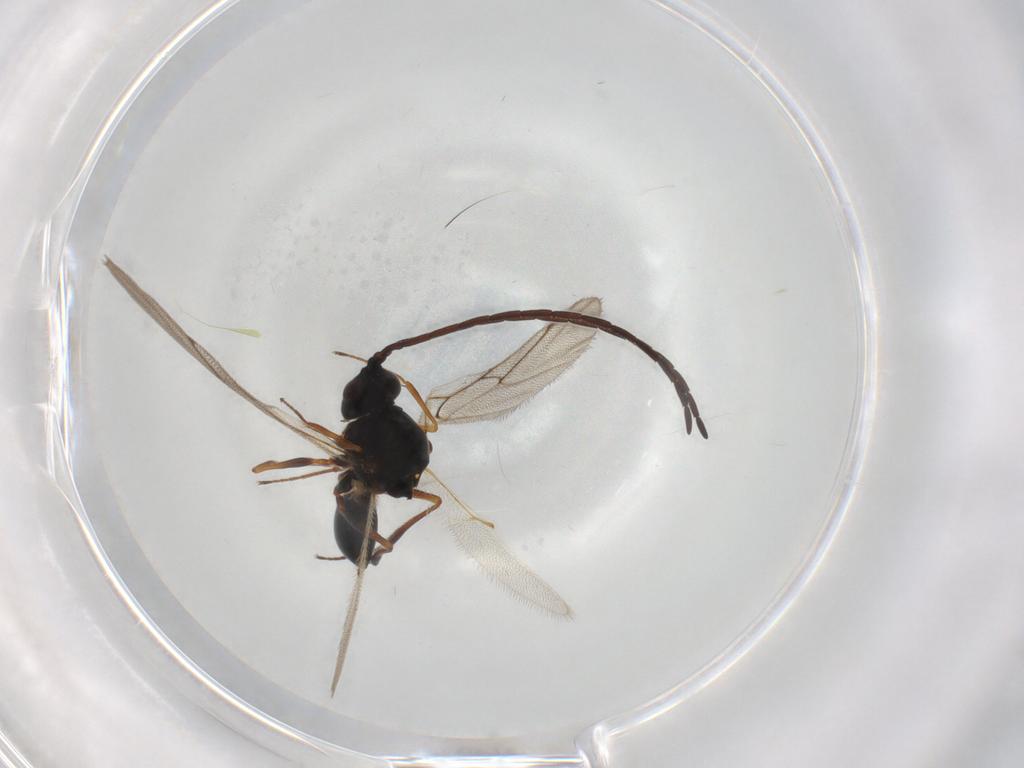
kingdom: Animalia
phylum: Arthropoda
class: Insecta
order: Hymenoptera
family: Figitidae
